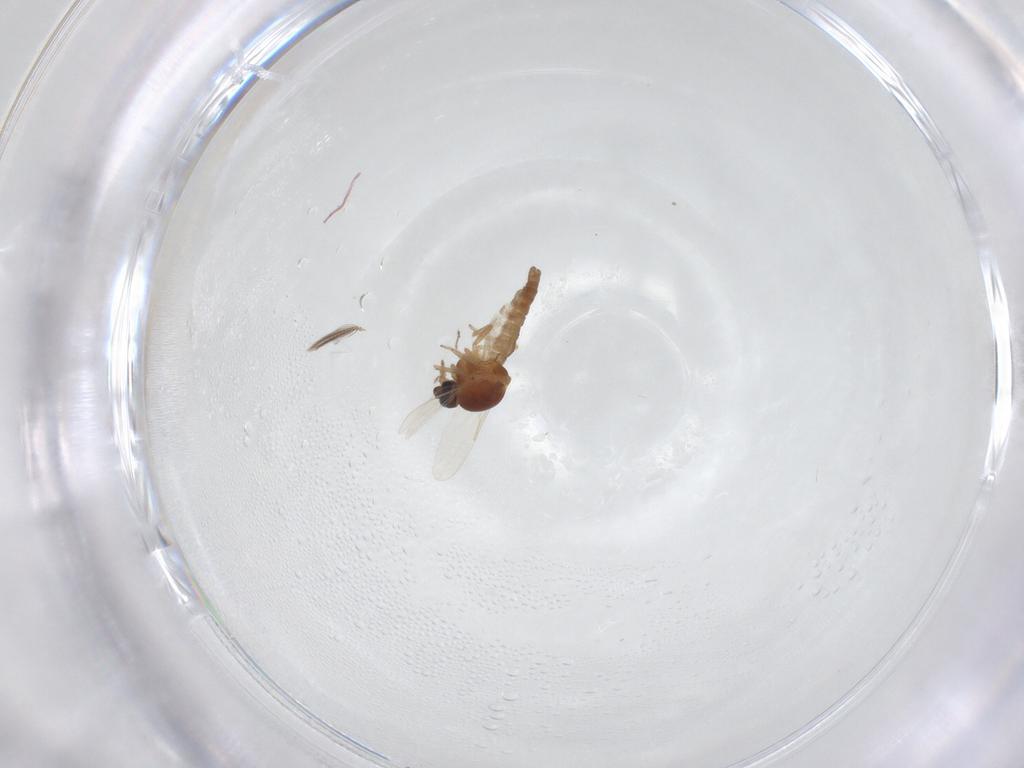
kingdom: Animalia
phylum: Arthropoda
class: Insecta
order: Diptera
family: Ceratopogonidae
